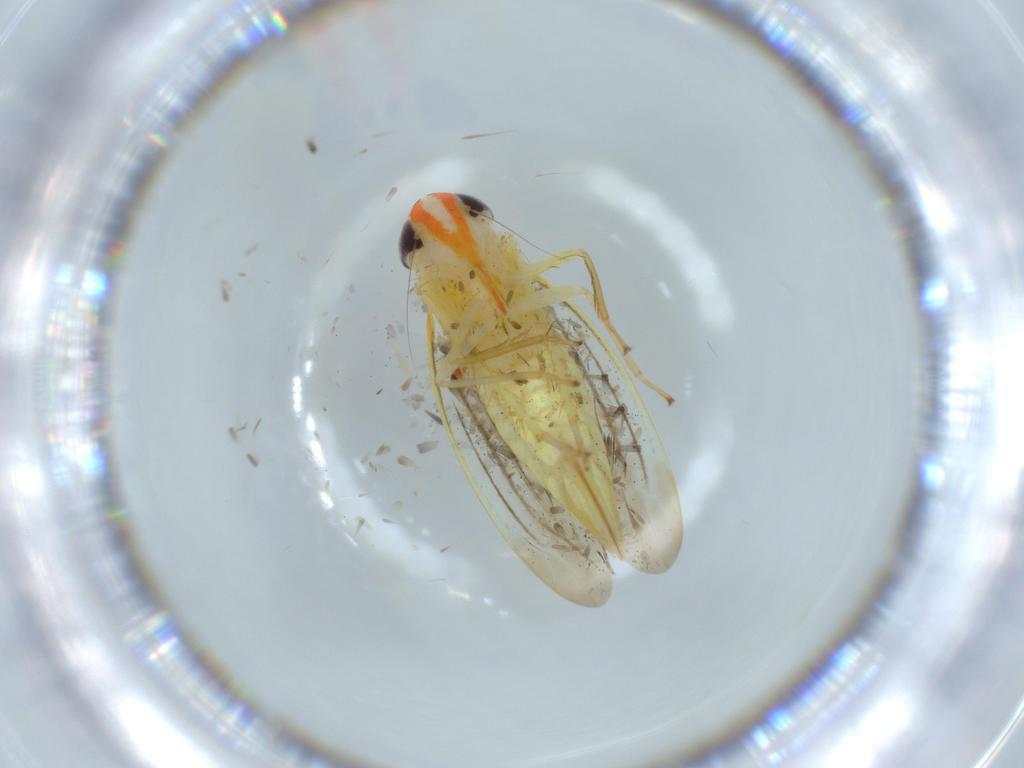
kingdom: Animalia
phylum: Arthropoda
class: Insecta
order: Hemiptera
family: Cicadellidae
